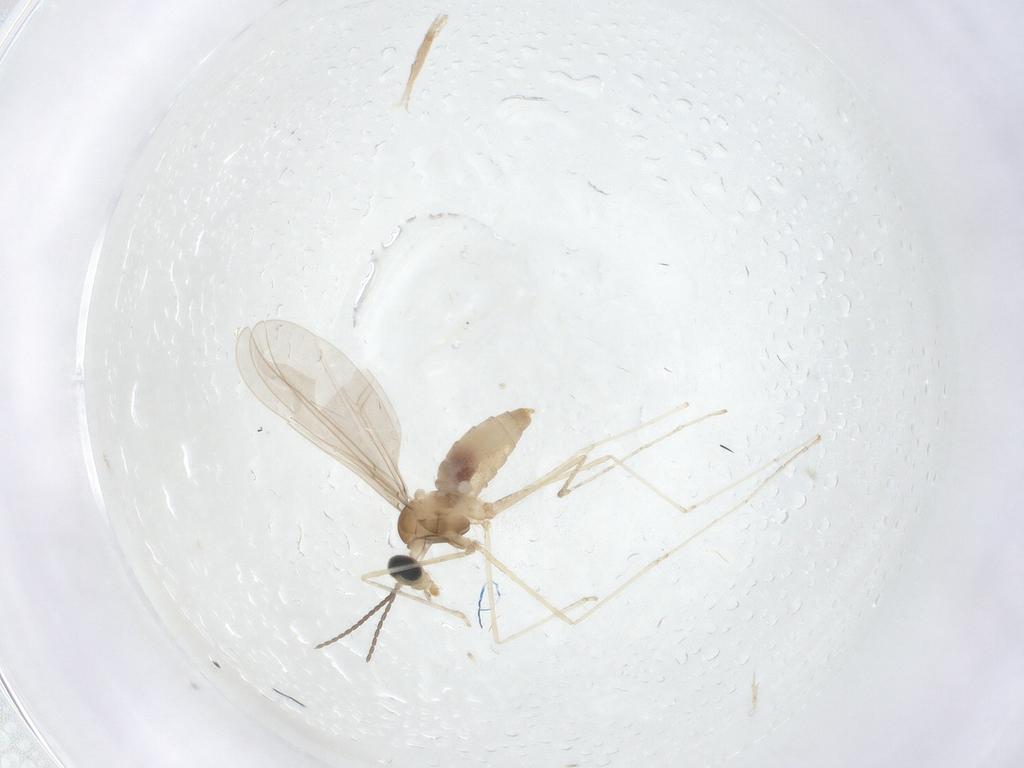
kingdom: Animalia
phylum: Arthropoda
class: Insecta
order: Diptera
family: Cecidomyiidae
